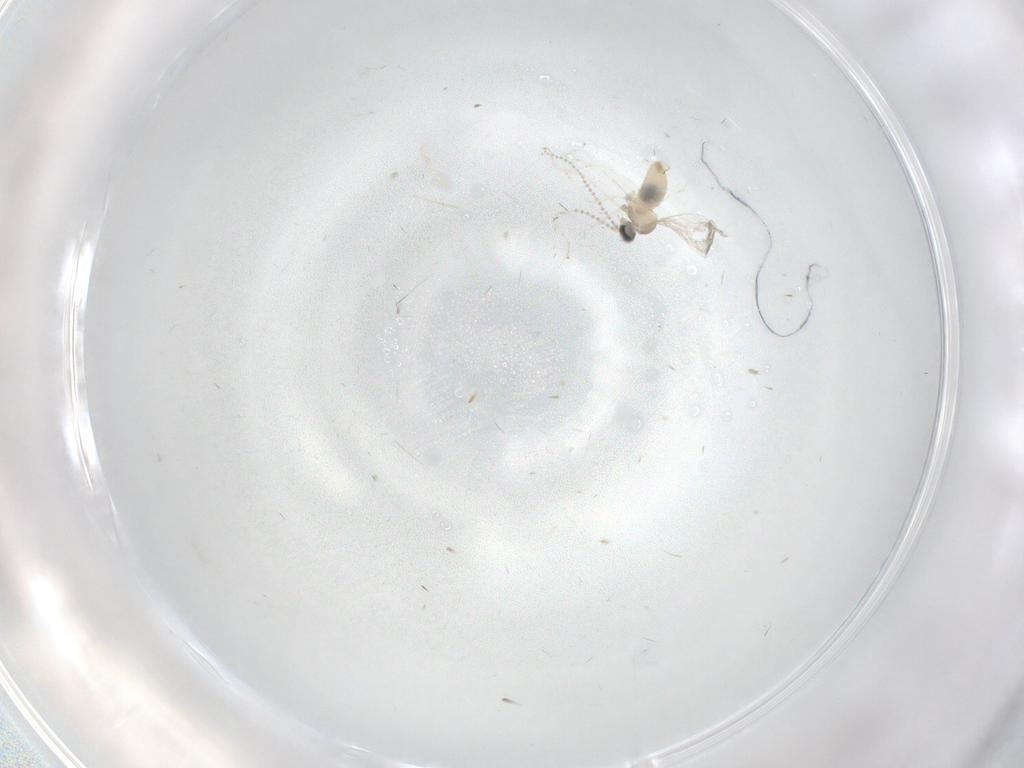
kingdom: Animalia
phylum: Arthropoda
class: Insecta
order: Diptera
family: Cecidomyiidae
